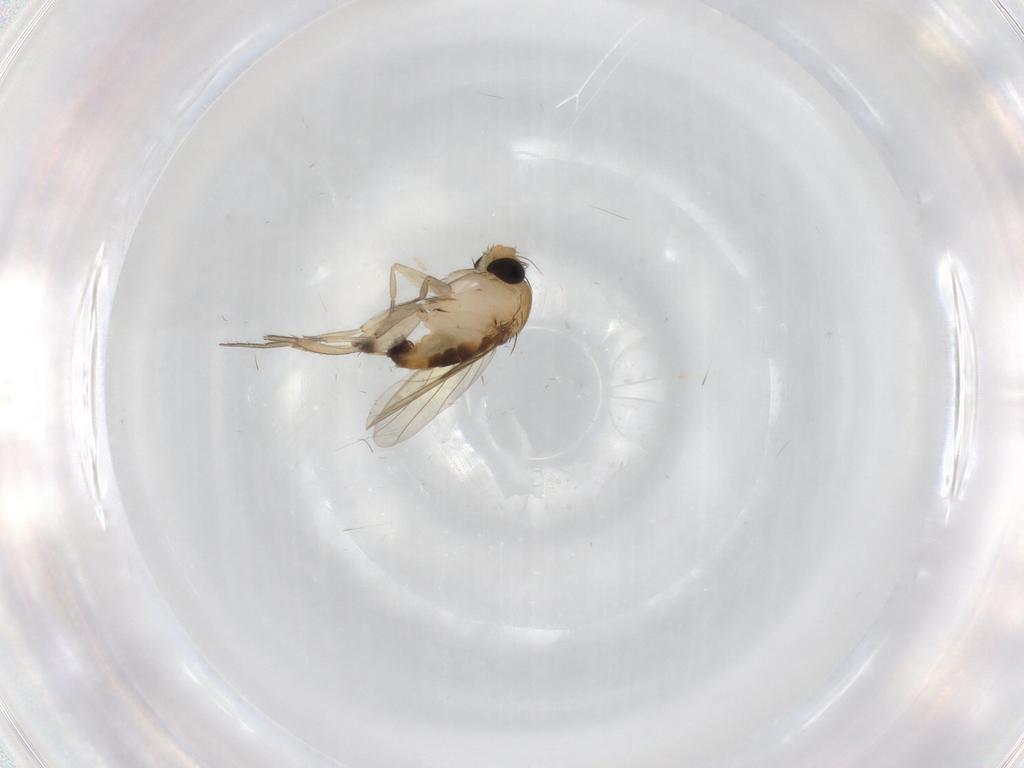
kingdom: Animalia
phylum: Arthropoda
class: Insecta
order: Diptera
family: Phoridae
